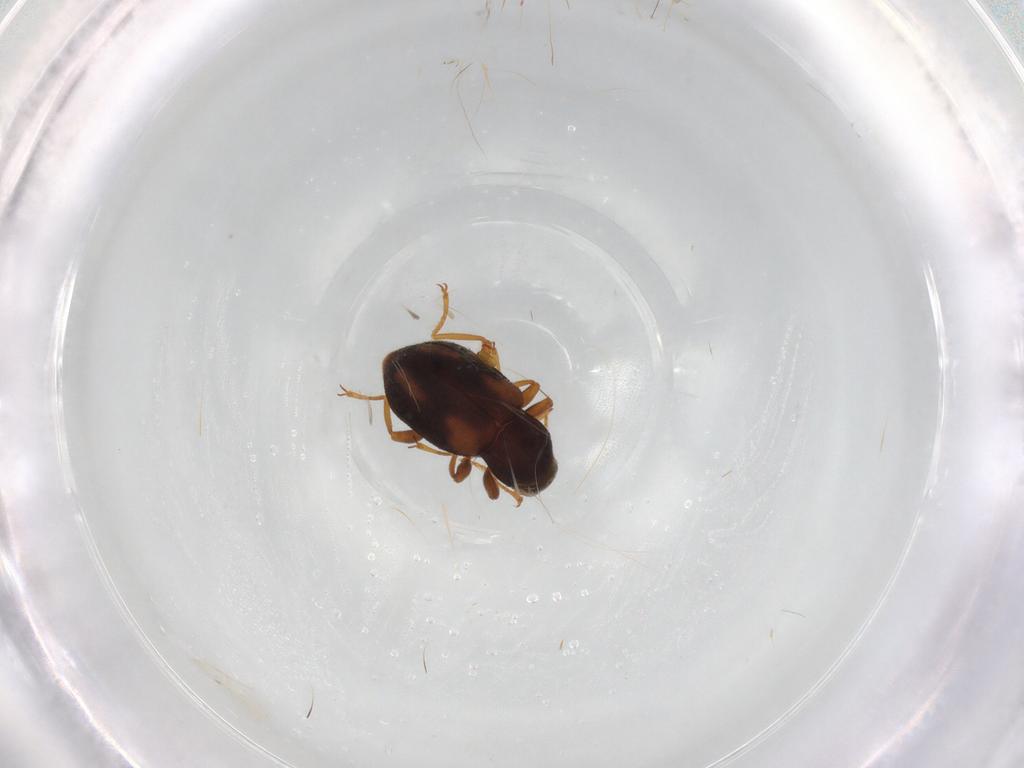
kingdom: Animalia
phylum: Arthropoda
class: Insecta
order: Coleoptera
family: Elmidae
